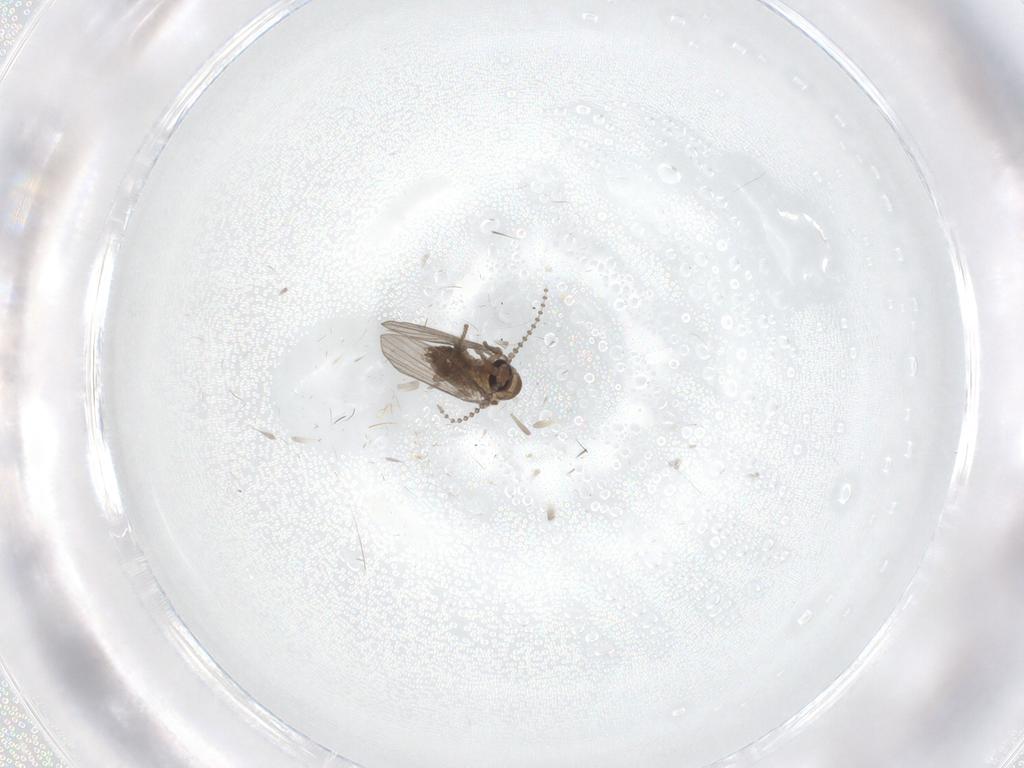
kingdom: Animalia
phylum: Arthropoda
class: Insecta
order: Diptera
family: Psychodidae
